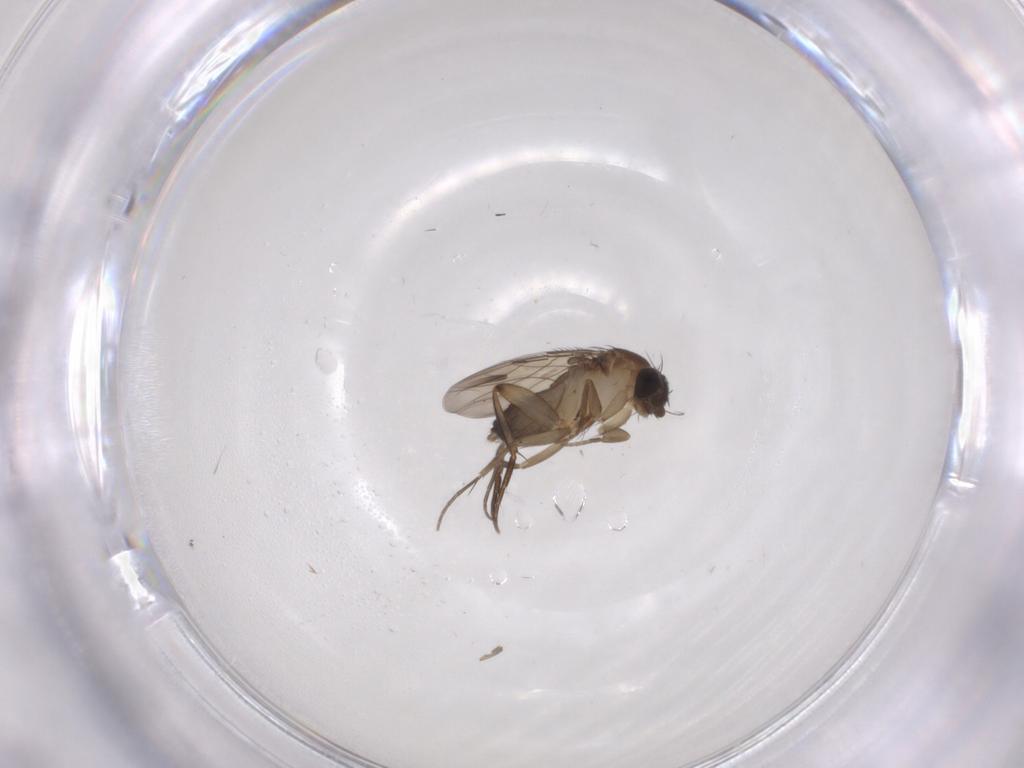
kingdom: Animalia
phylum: Arthropoda
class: Insecta
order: Diptera
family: Phoridae
